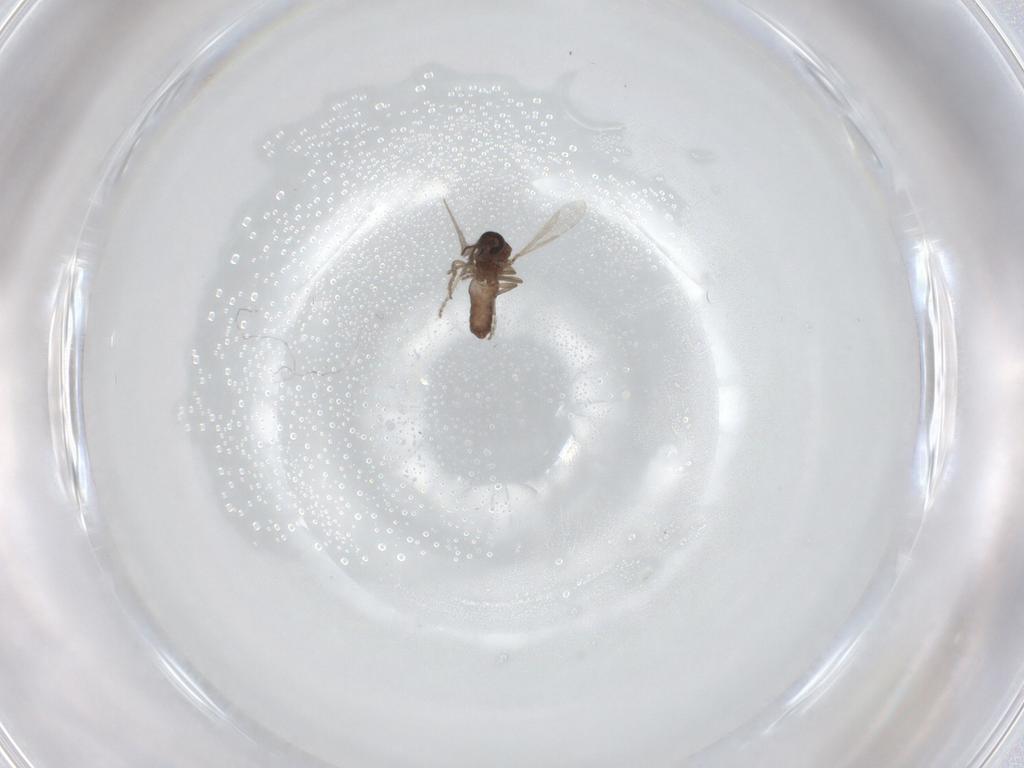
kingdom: Animalia
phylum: Arthropoda
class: Insecta
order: Diptera
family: Ceratopogonidae
